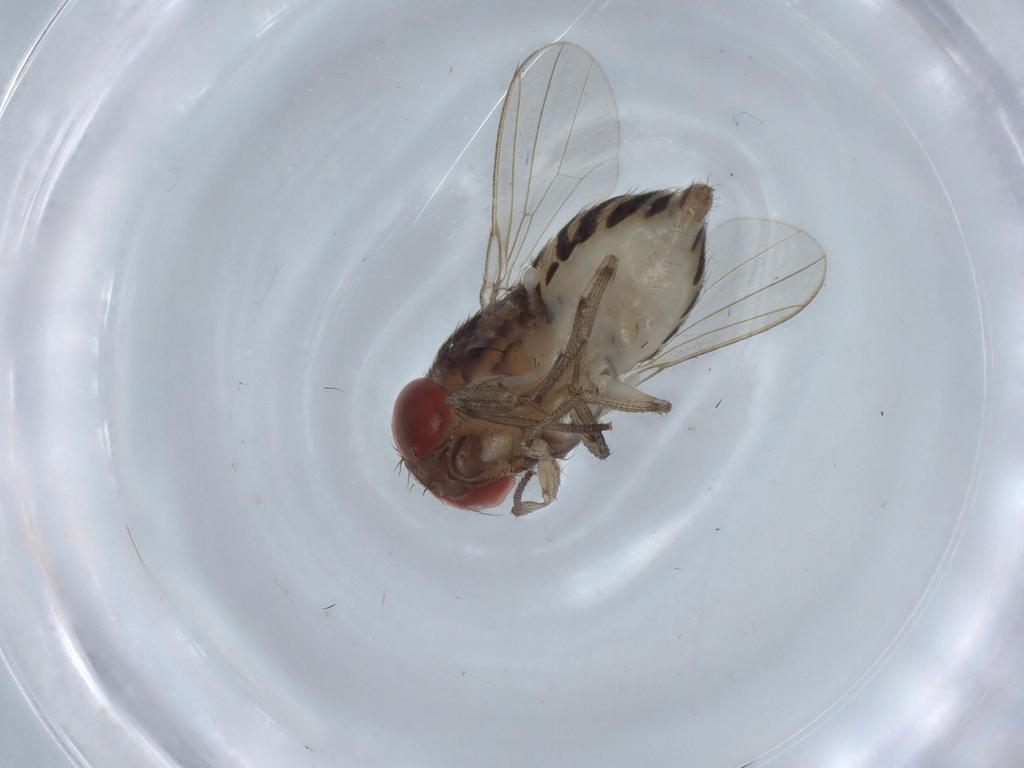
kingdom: Animalia
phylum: Arthropoda
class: Insecta
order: Diptera
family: Drosophilidae
